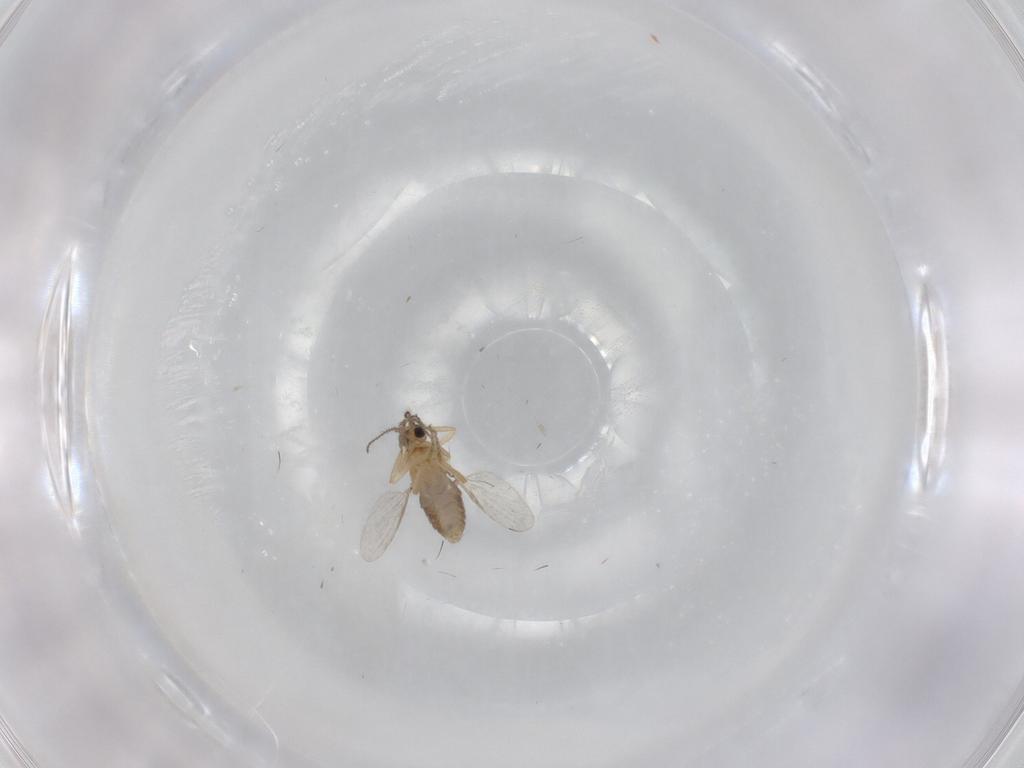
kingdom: Animalia
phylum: Arthropoda
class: Insecta
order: Diptera
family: Ceratopogonidae
